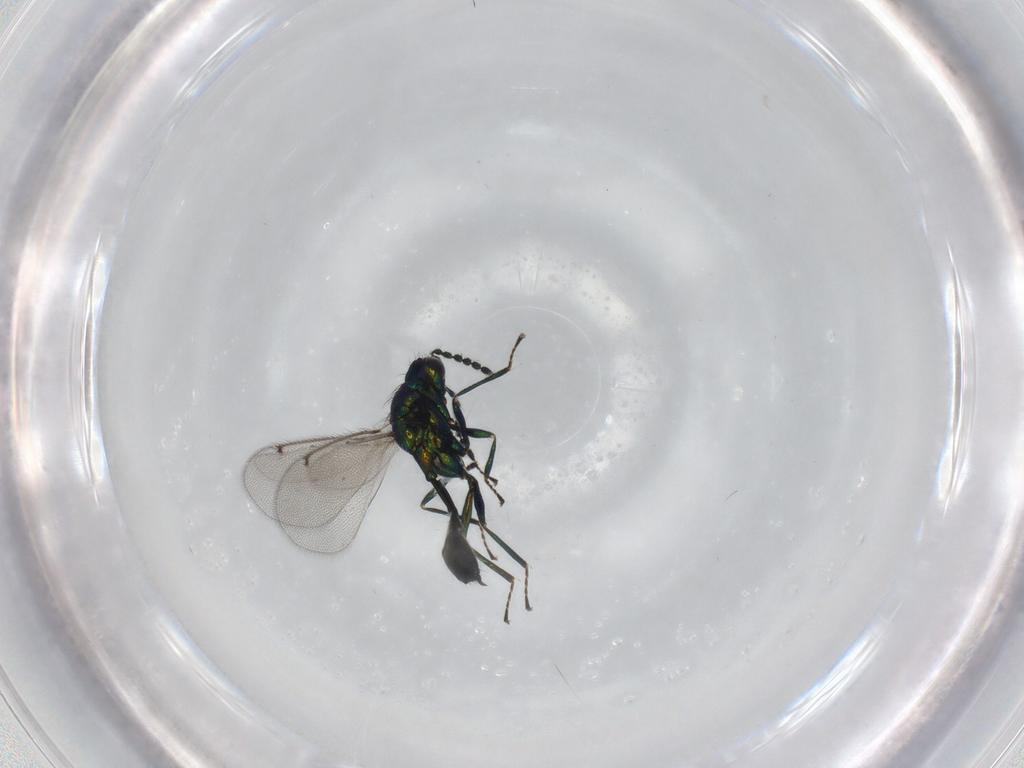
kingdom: Animalia
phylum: Arthropoda
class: Insecta
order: Hymenoptera
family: Eulophidae
